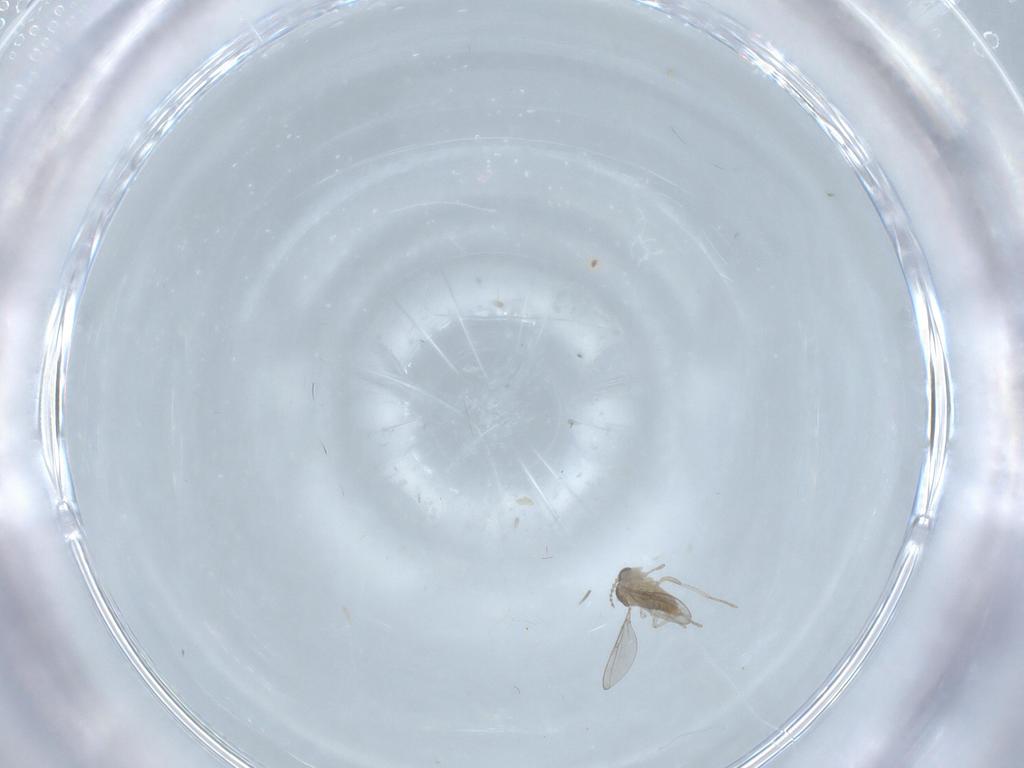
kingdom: Animalia
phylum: Arthropoda
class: Insecta
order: Diptera
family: Cecidomyiidae
